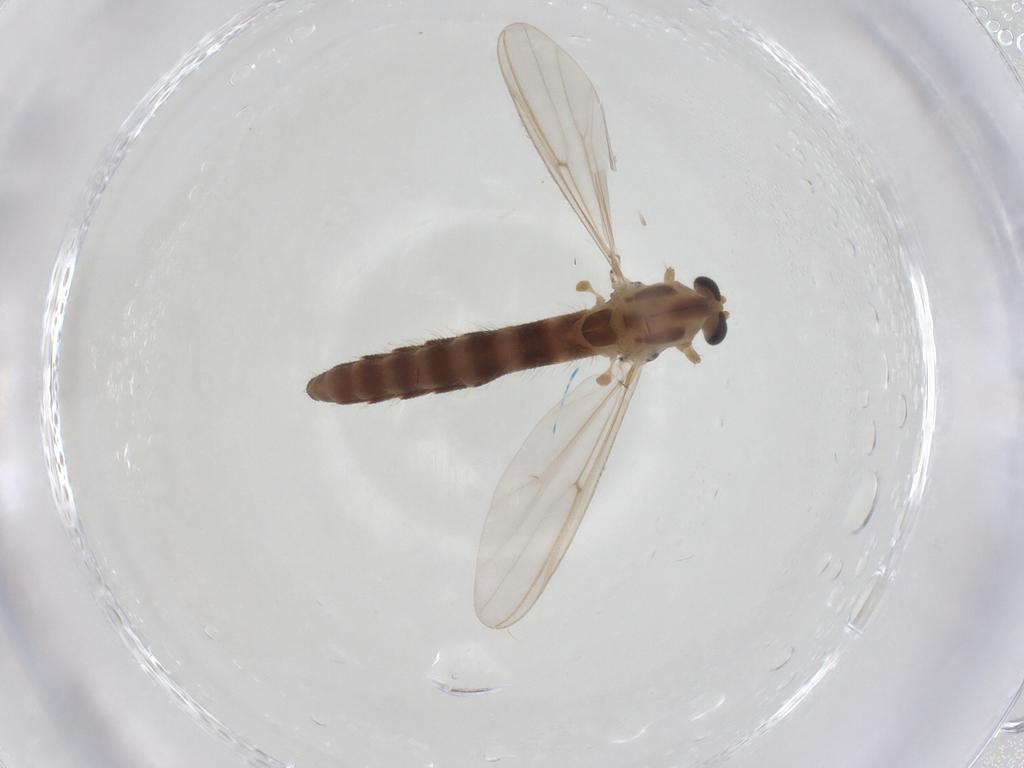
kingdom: Animalia
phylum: Arthropoda
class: Insecta
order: Diptera
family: Chironomidae
